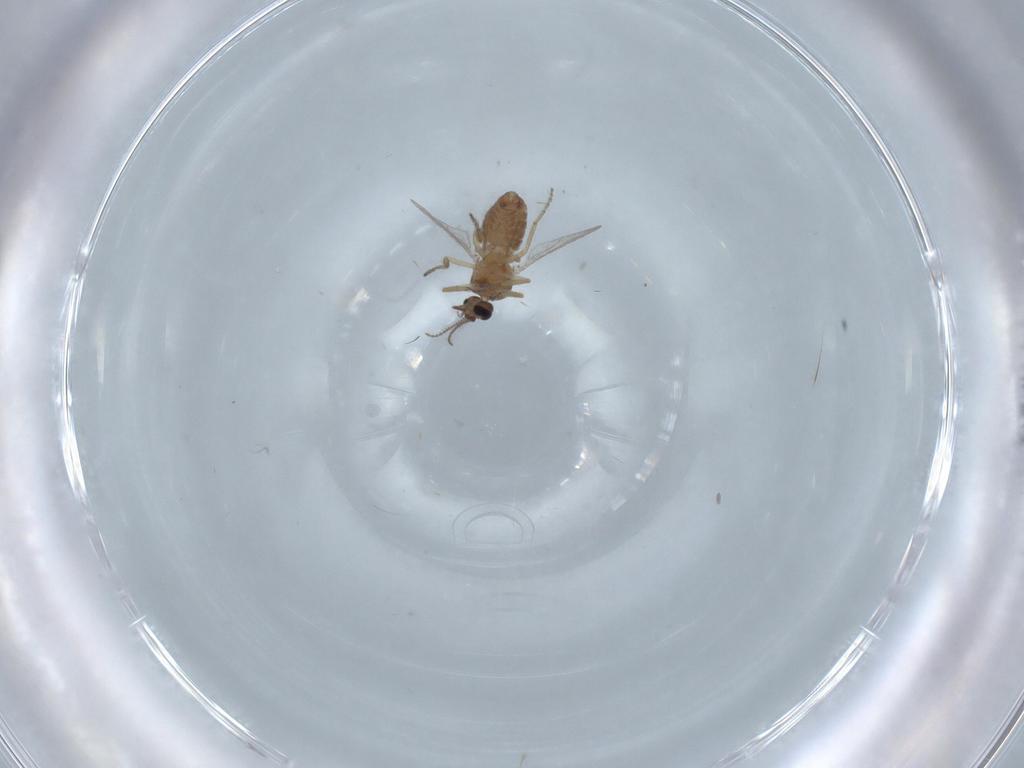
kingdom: Animalia
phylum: Arthropoda
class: Insecta
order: Diptera
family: Ceratopogonidae
